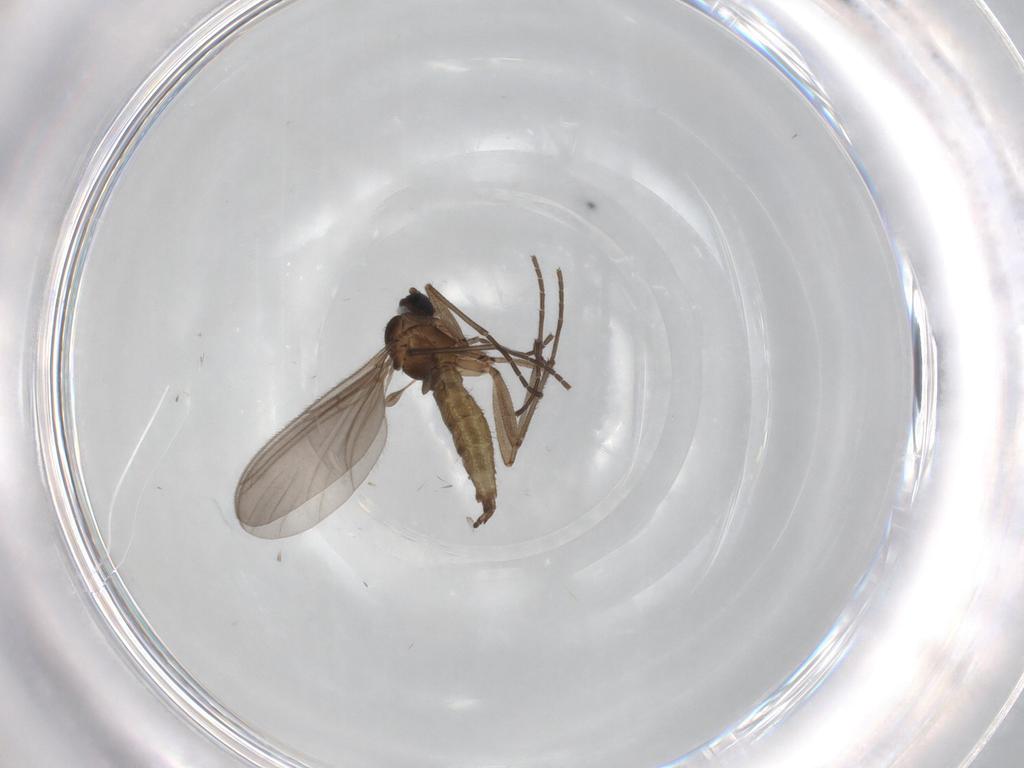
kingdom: Animalia
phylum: Arthropoda
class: Insecta
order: Diptera
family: Sciaridae
